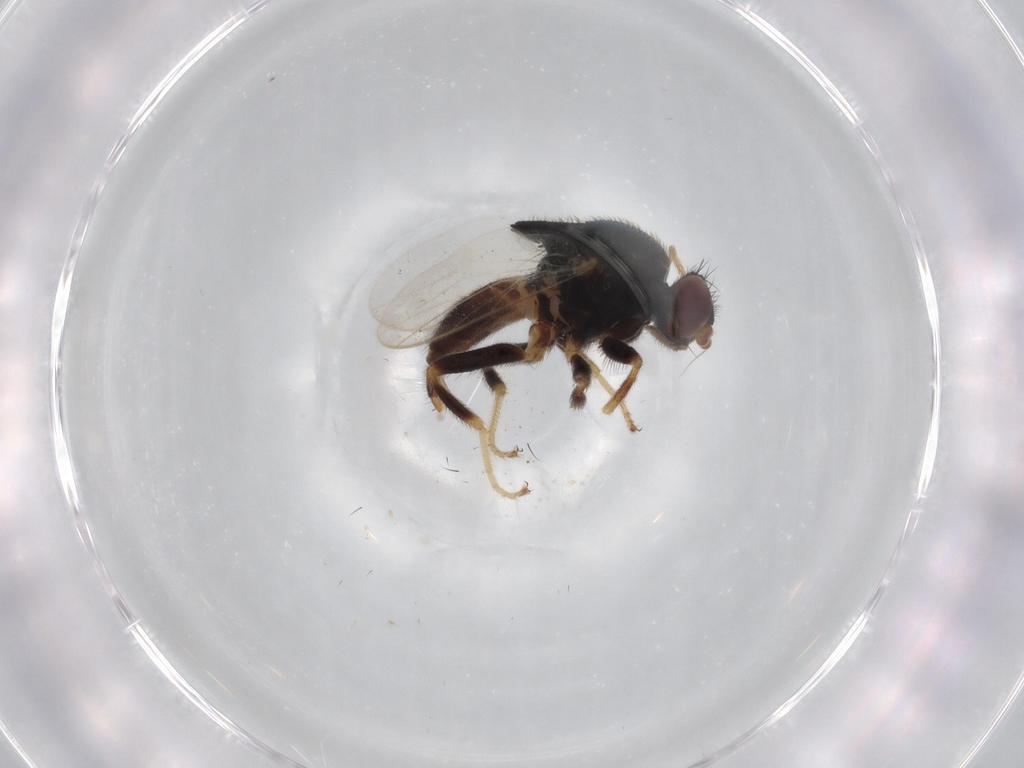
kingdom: Animalia
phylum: Arthropoda
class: Insecta
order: Diptera
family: Chloropidae
